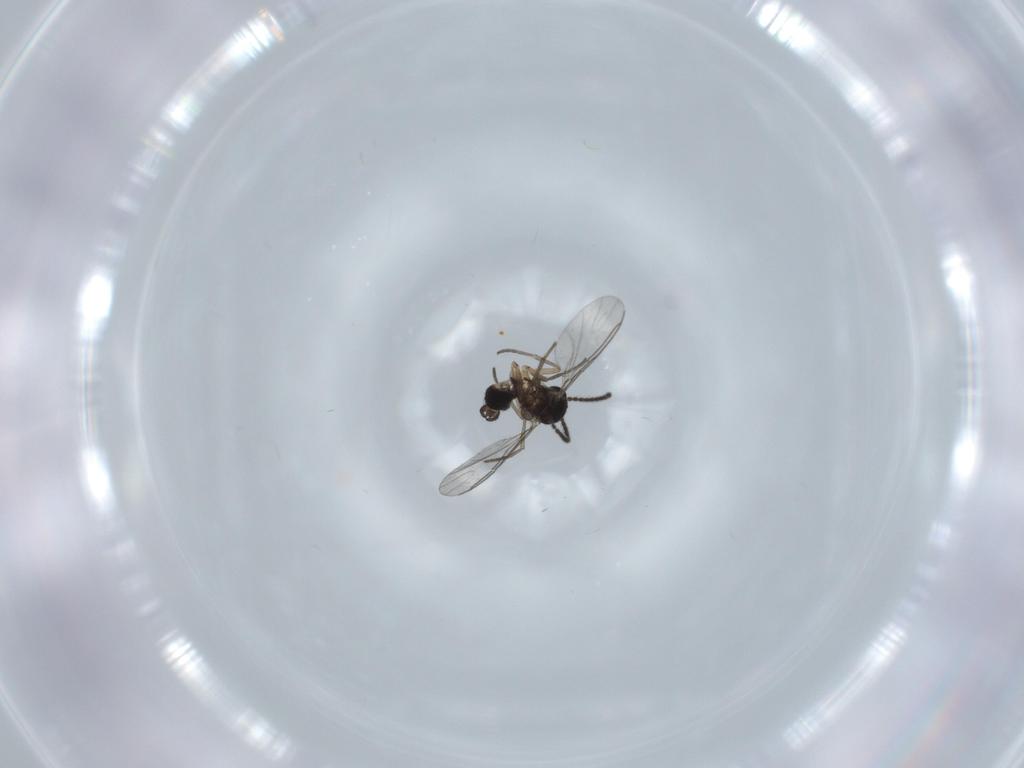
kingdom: Animalia
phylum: Arthropoda
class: Insecta
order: Diptera
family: Sciaridae
